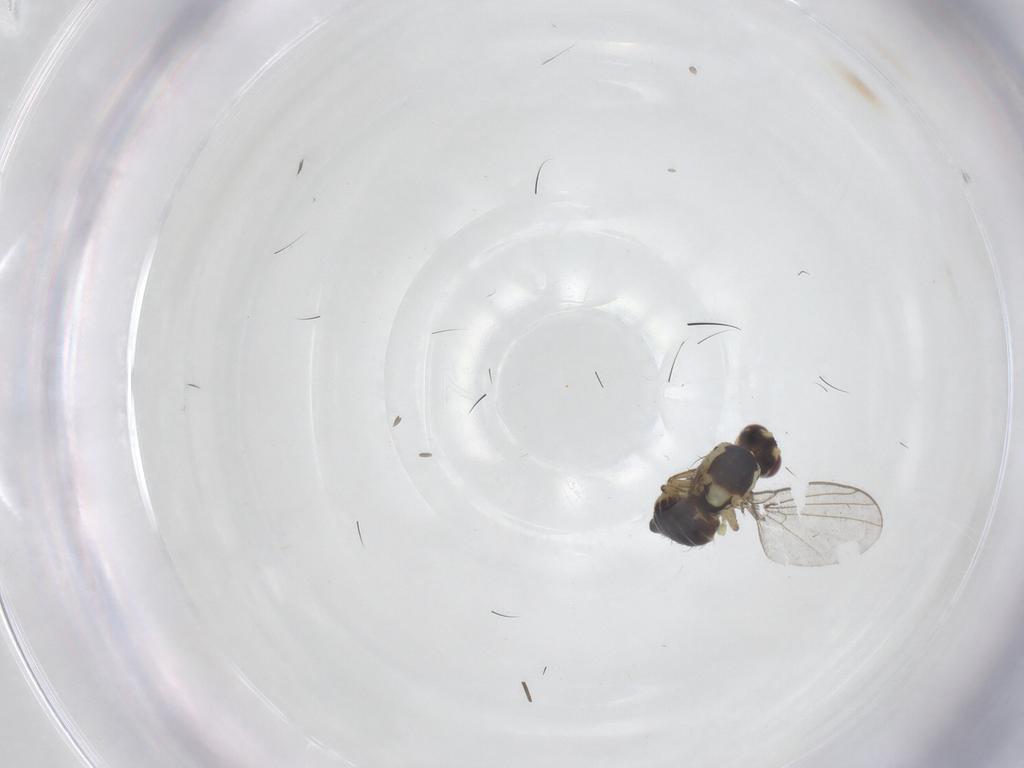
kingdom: Animalia
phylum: Arthropoda
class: Insecta
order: Diptera
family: Agromyzidae
